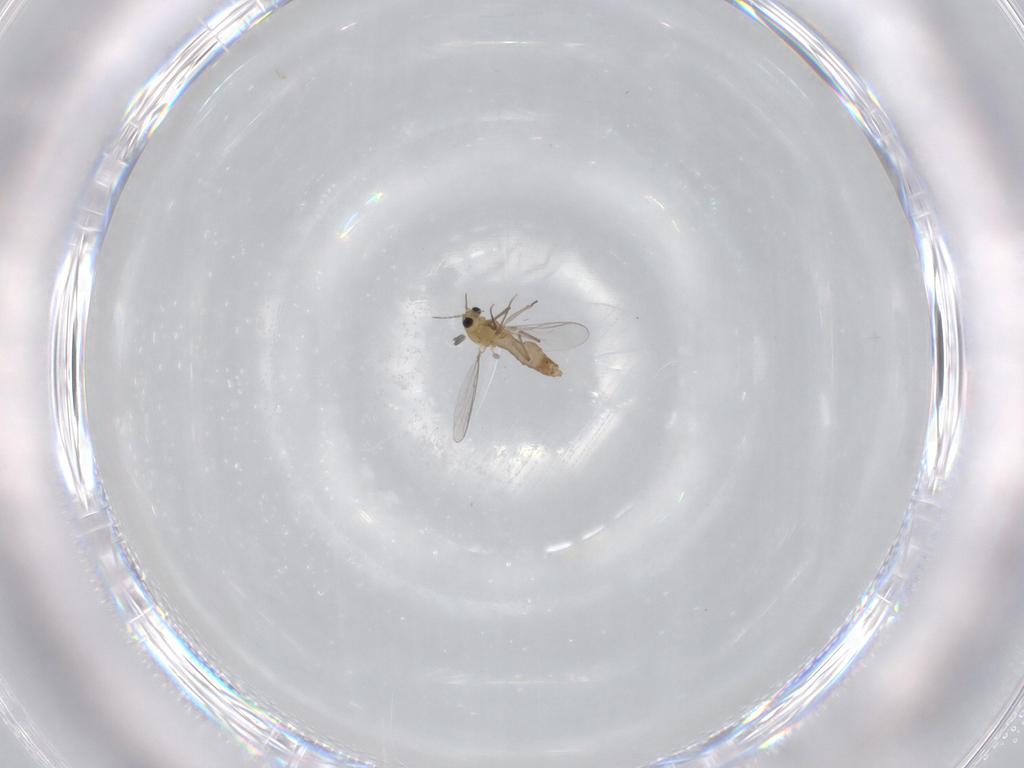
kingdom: Animalia
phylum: Arthropoda
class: Insecta
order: Diptera
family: Chironomidae
